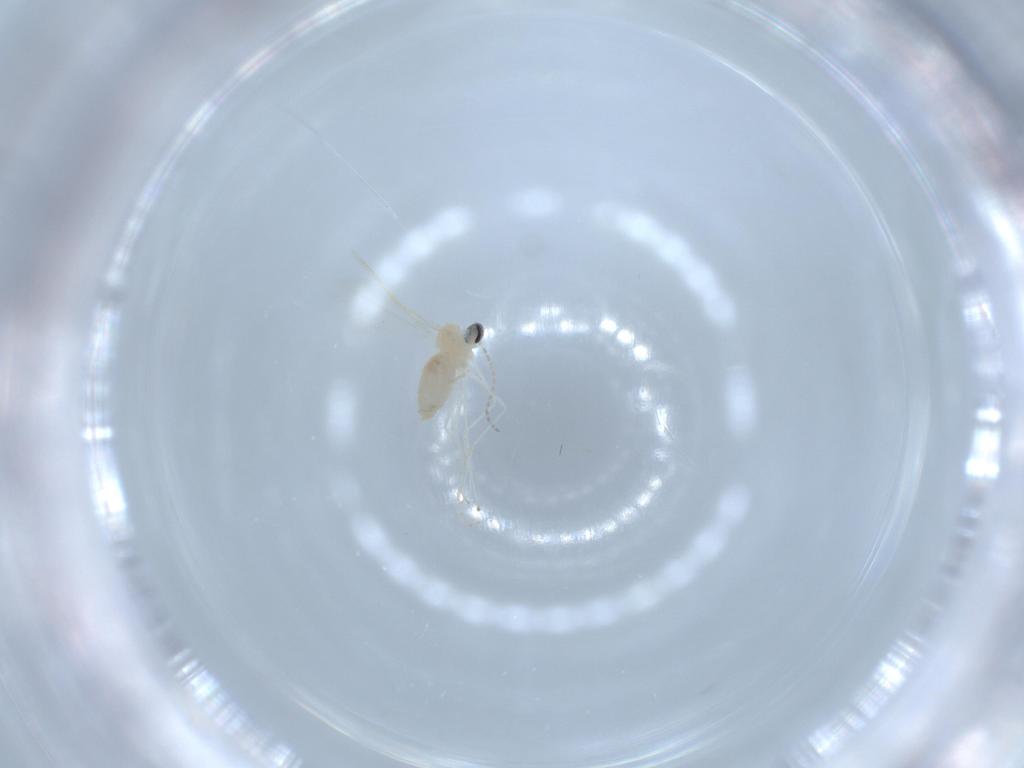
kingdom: Animalia
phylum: Arthropoda
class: Insecta
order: Diptera
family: Cecidomyiidae
